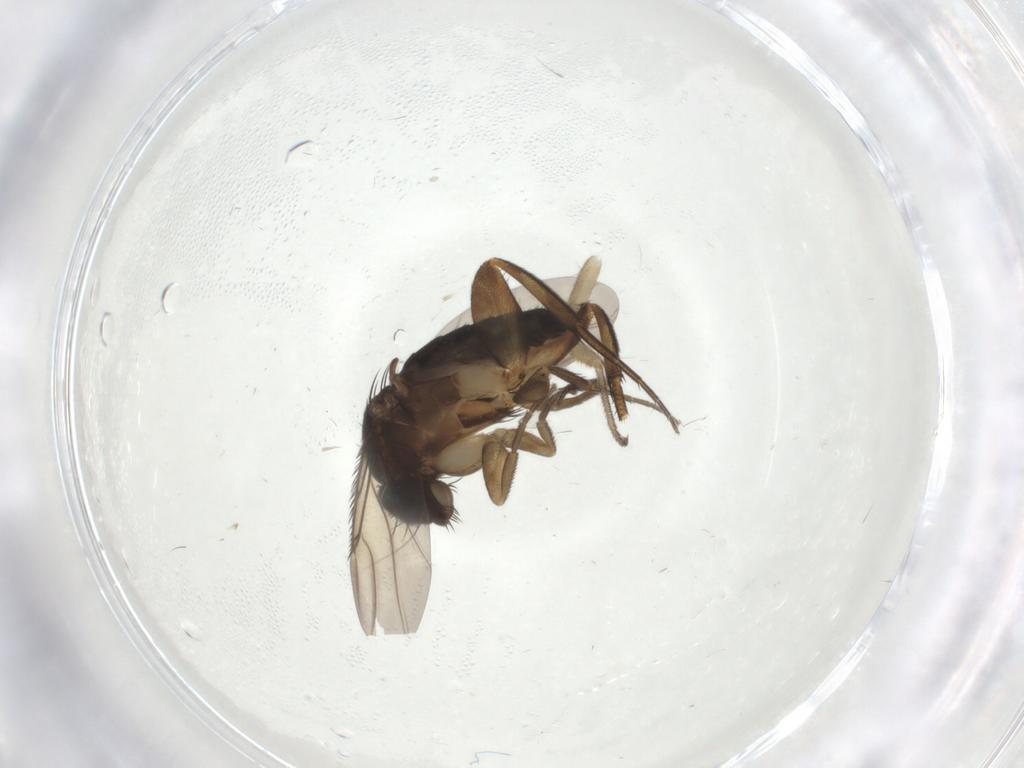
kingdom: Animalia
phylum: Arthropoda
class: Insecta
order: Diptera
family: Phoridae
